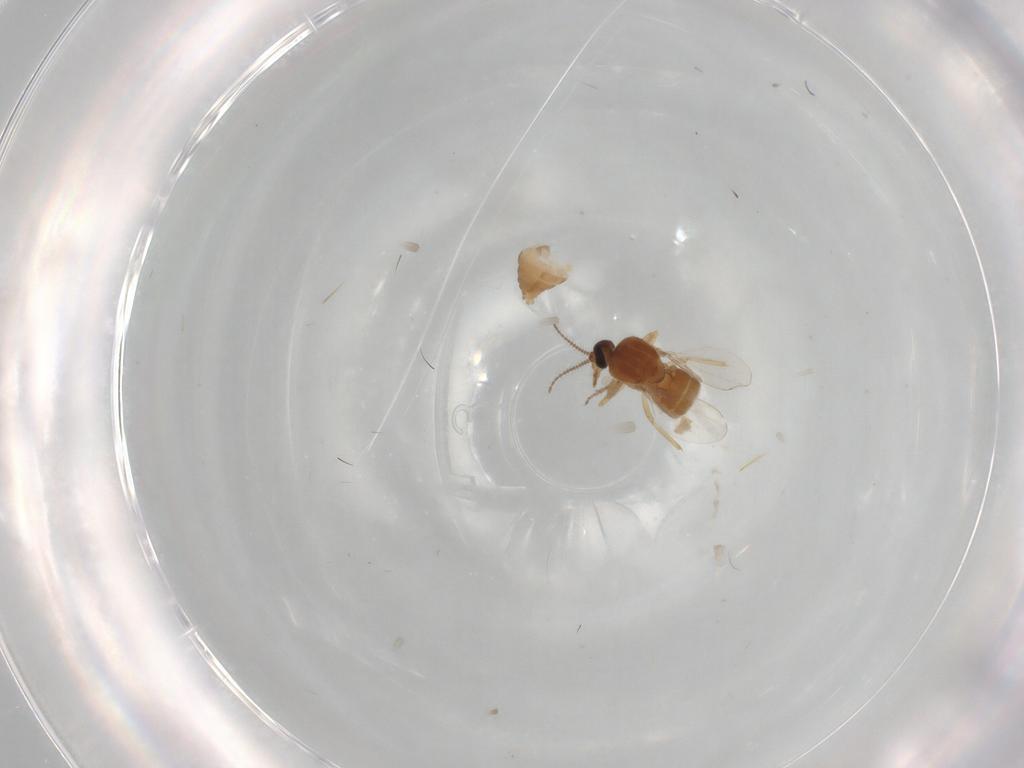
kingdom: Animalia
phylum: Arthropoda
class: Insecta
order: Diptera
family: Ceratopogonidae
